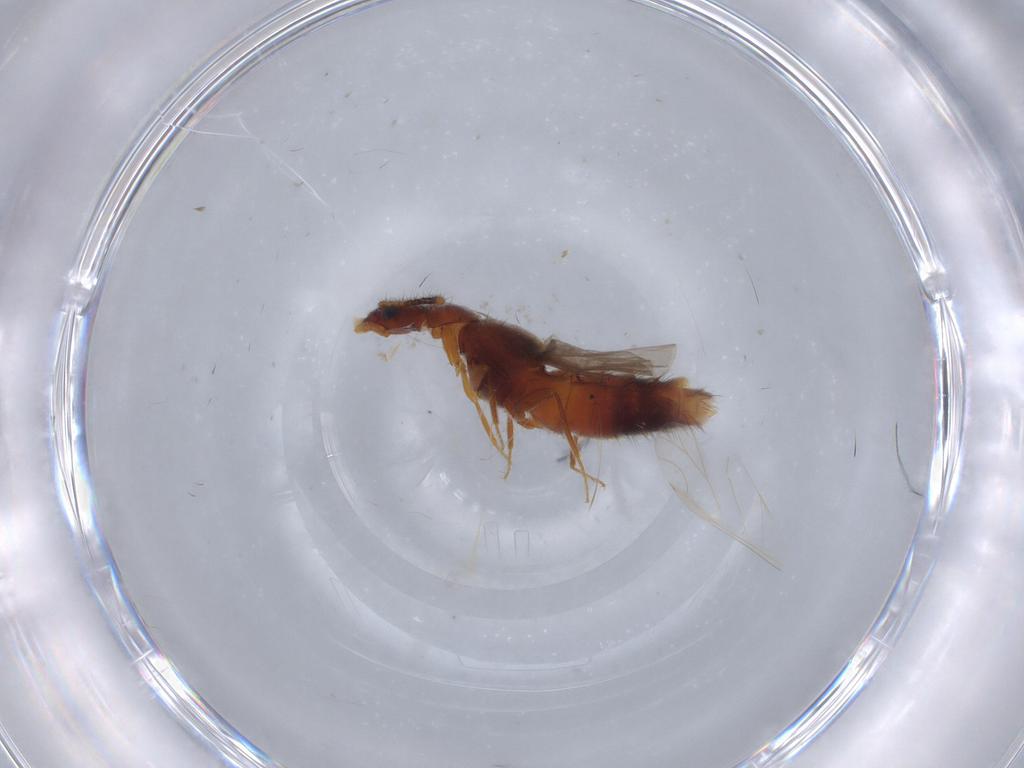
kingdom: Animalia
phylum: Arthropoda
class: Insecta
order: Coleoptera
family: Staphylinidae
